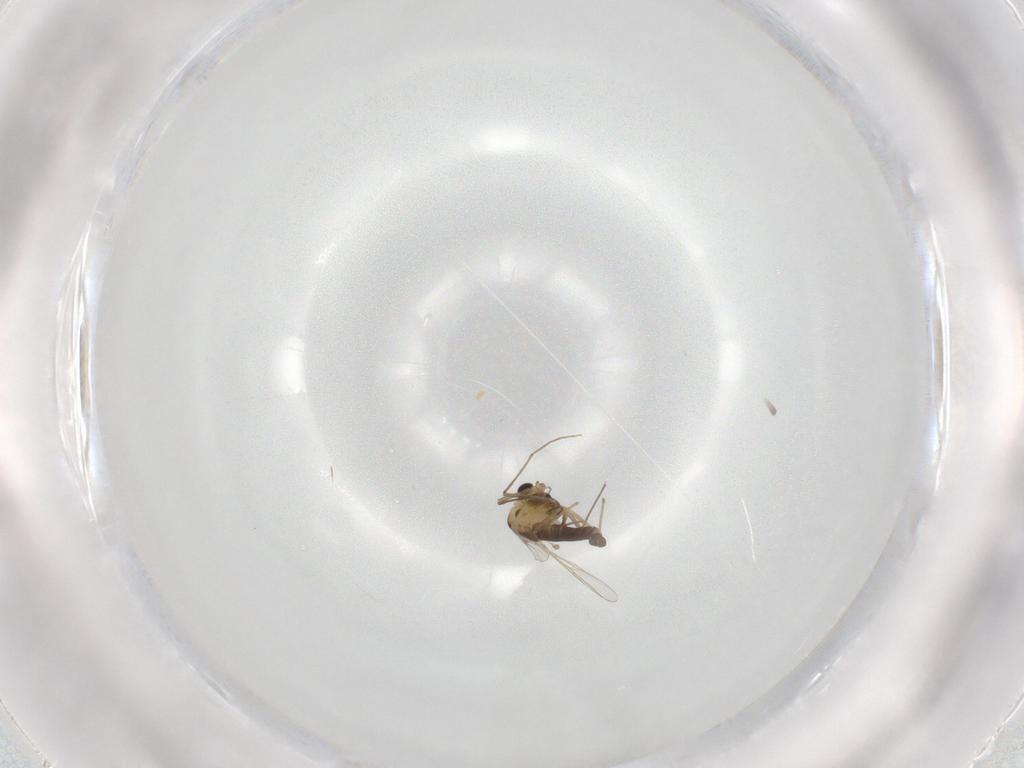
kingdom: Animalia
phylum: Arthropoda
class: Insecta
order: Diptera
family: Chironomidae
